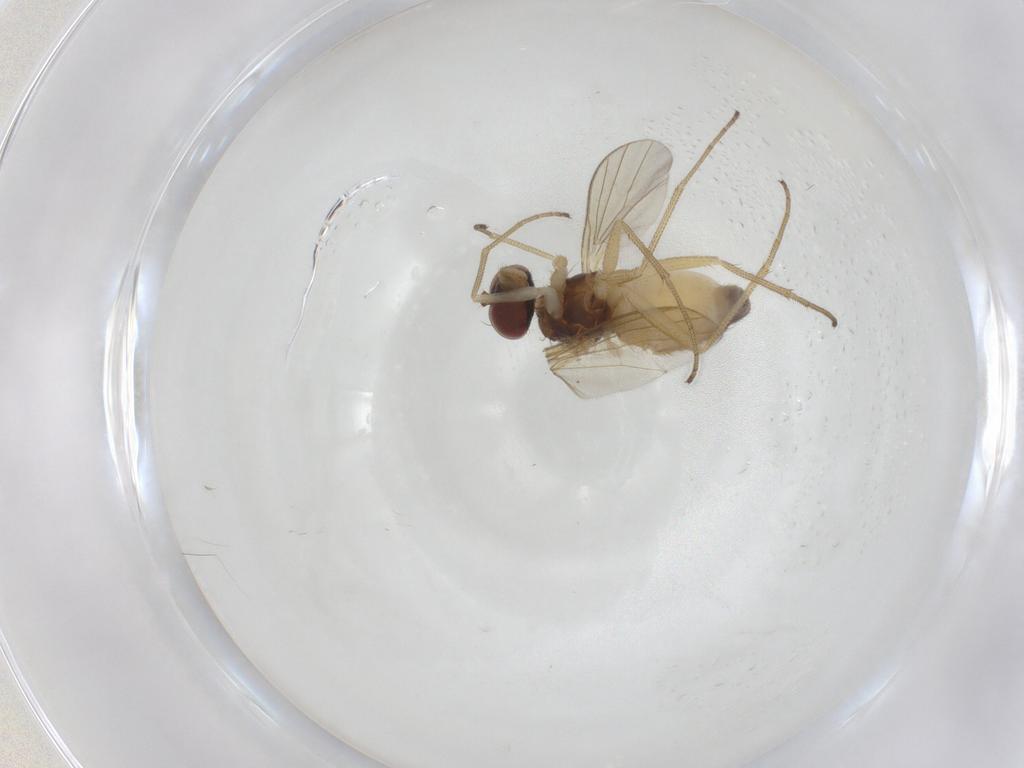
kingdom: Animalia
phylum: Arthropoda
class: Insecta
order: Diptera
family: Dolichopodidae
